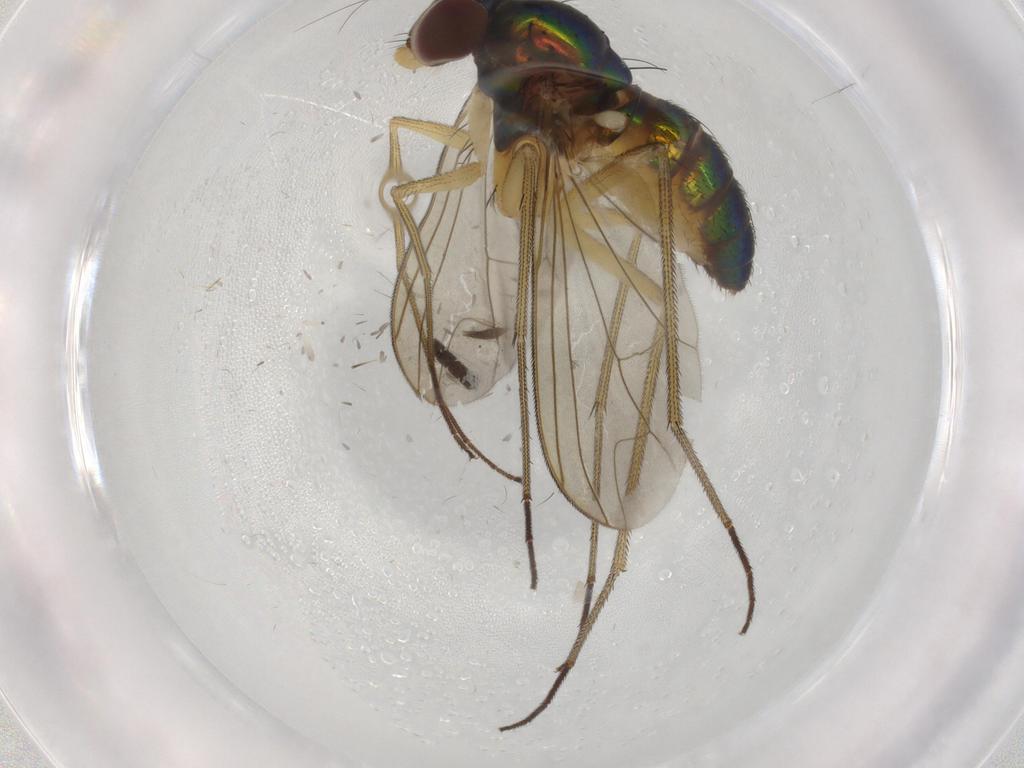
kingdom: Animalia
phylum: Arthropoda
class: Insecta
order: Diptera
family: Dolichopodidae
